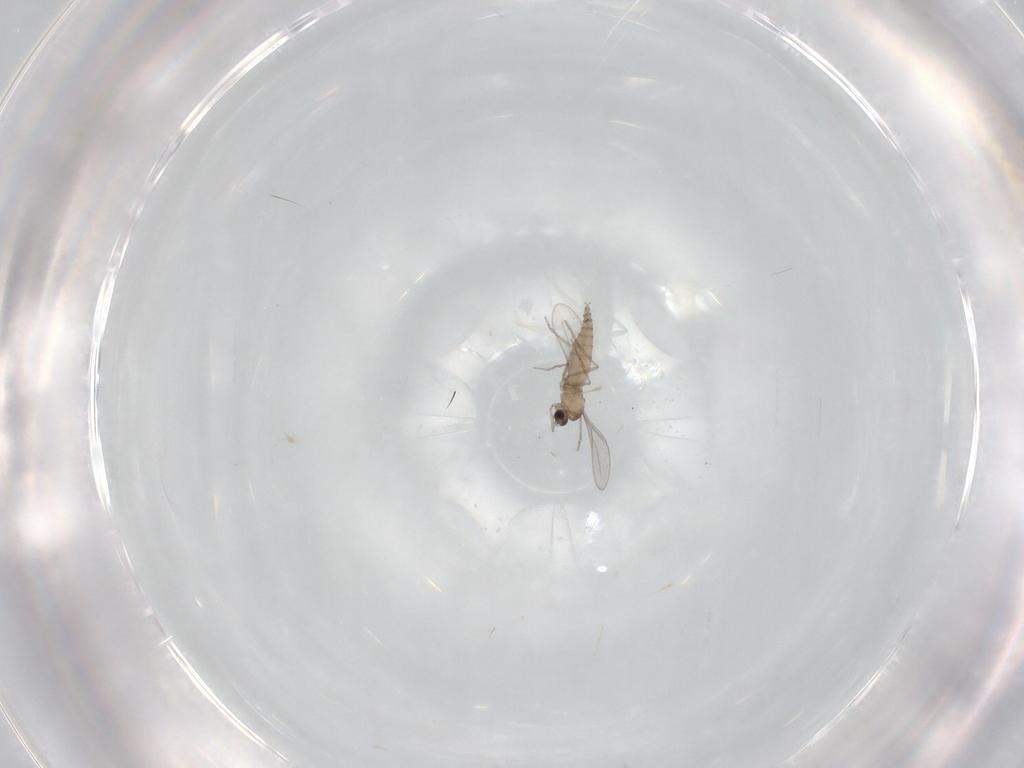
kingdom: Animalia
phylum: Arthropoda
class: Insecta
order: Diptera
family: Cecidomyiidae
